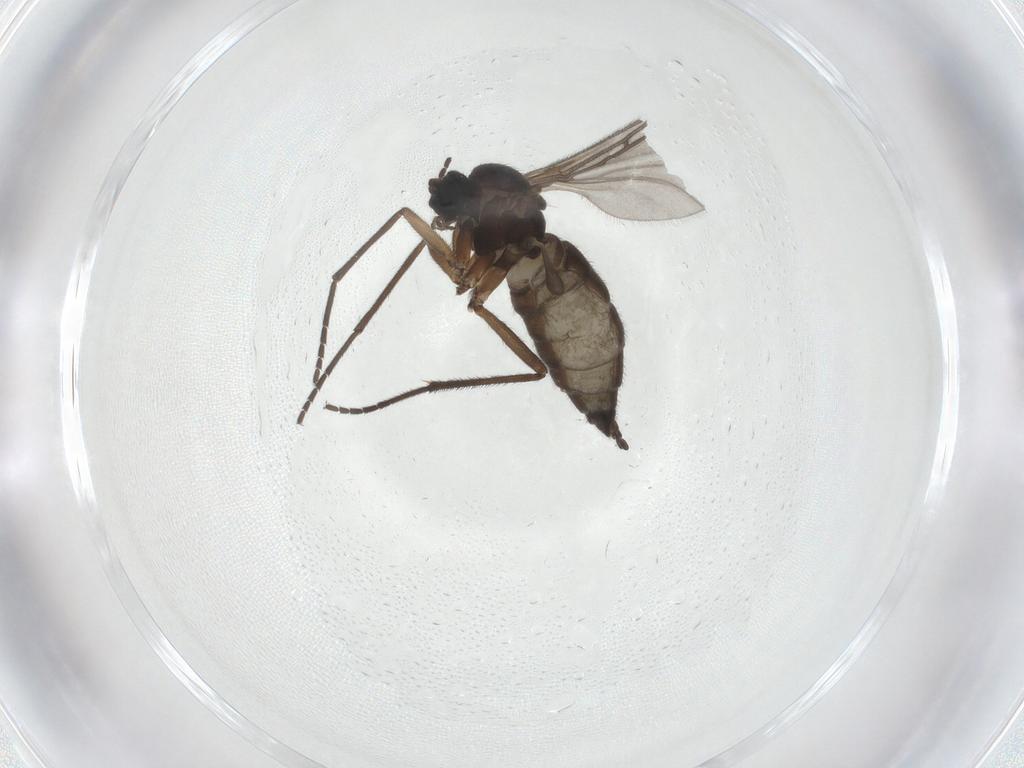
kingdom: Animalia
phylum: Arthropoda
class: Insecta
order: Diptera
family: Sciaridae
